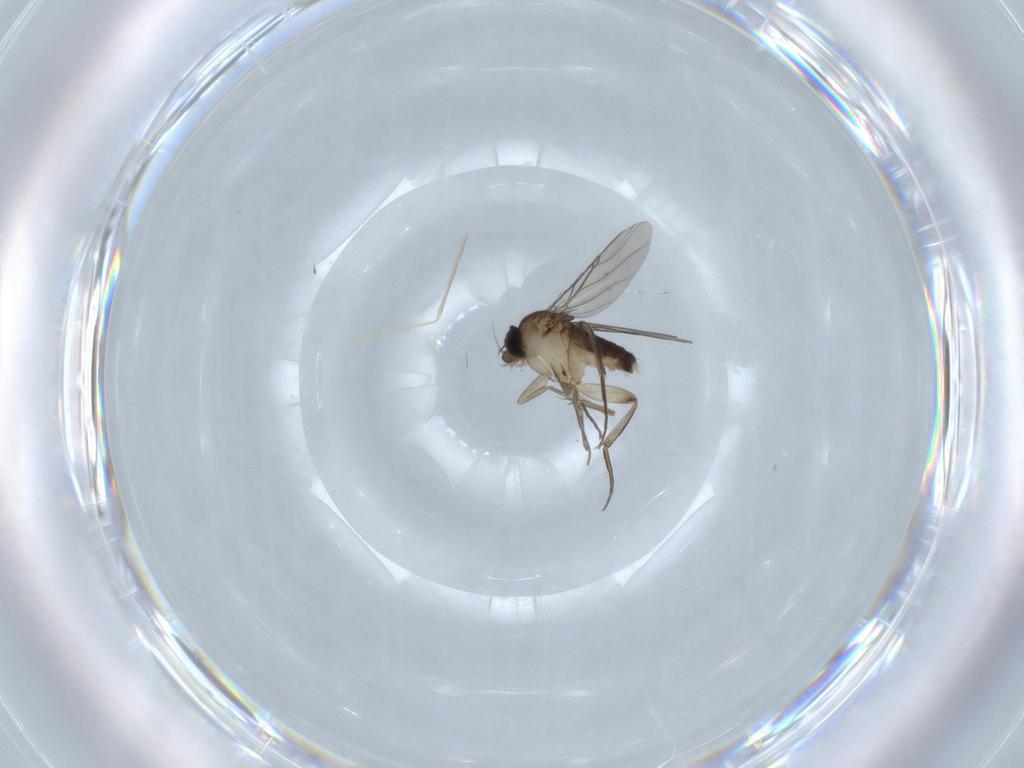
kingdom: Animalia
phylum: Arthropoda
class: Insecta
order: Diptera
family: Phoridae
